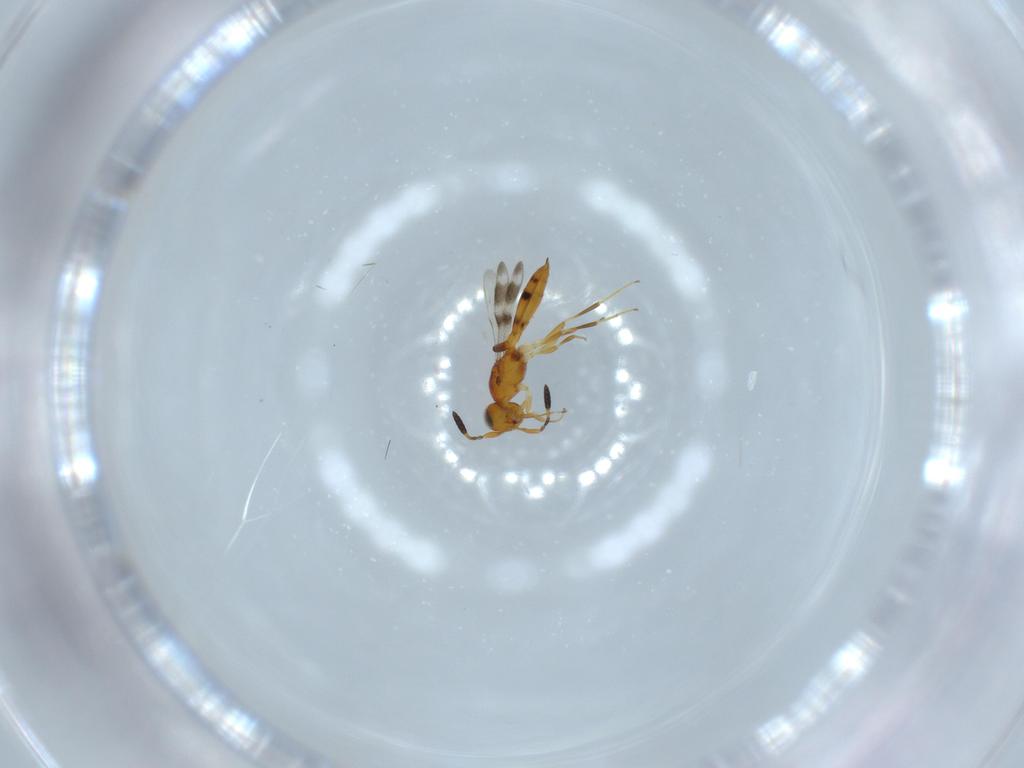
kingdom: Animalia
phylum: Arthropoda
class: Insecta
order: Hymenoptera
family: Scelionidae
